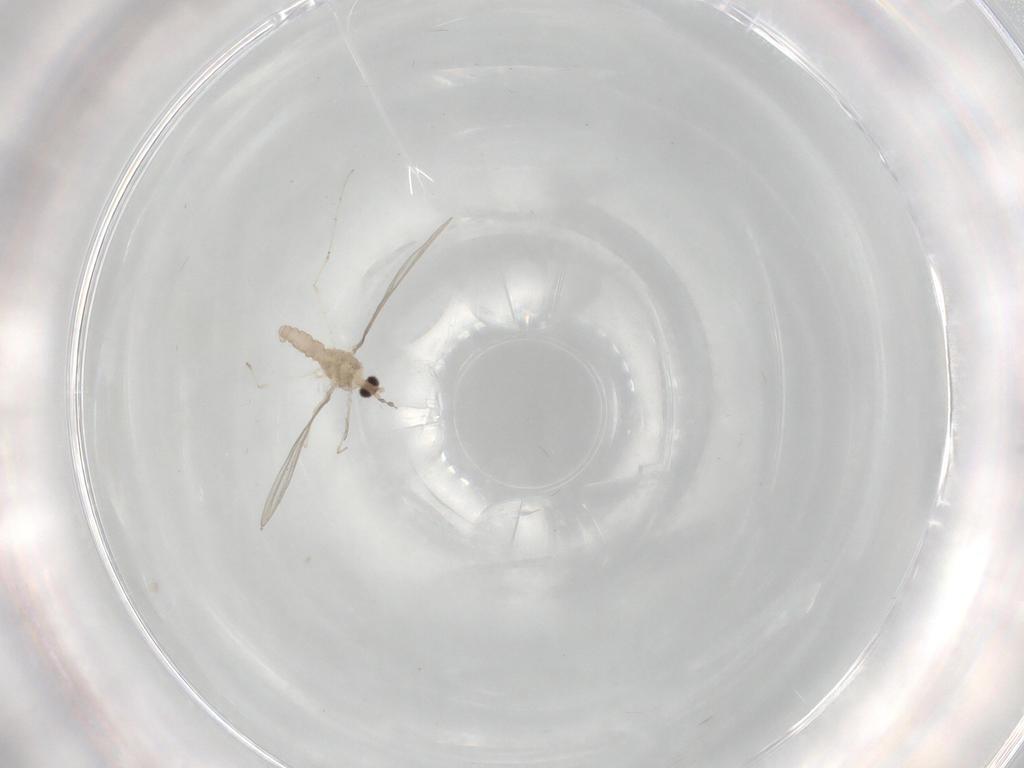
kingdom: Animalia
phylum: Arthropoda
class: Insecta
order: Diptera
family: Cecidomyiidae
